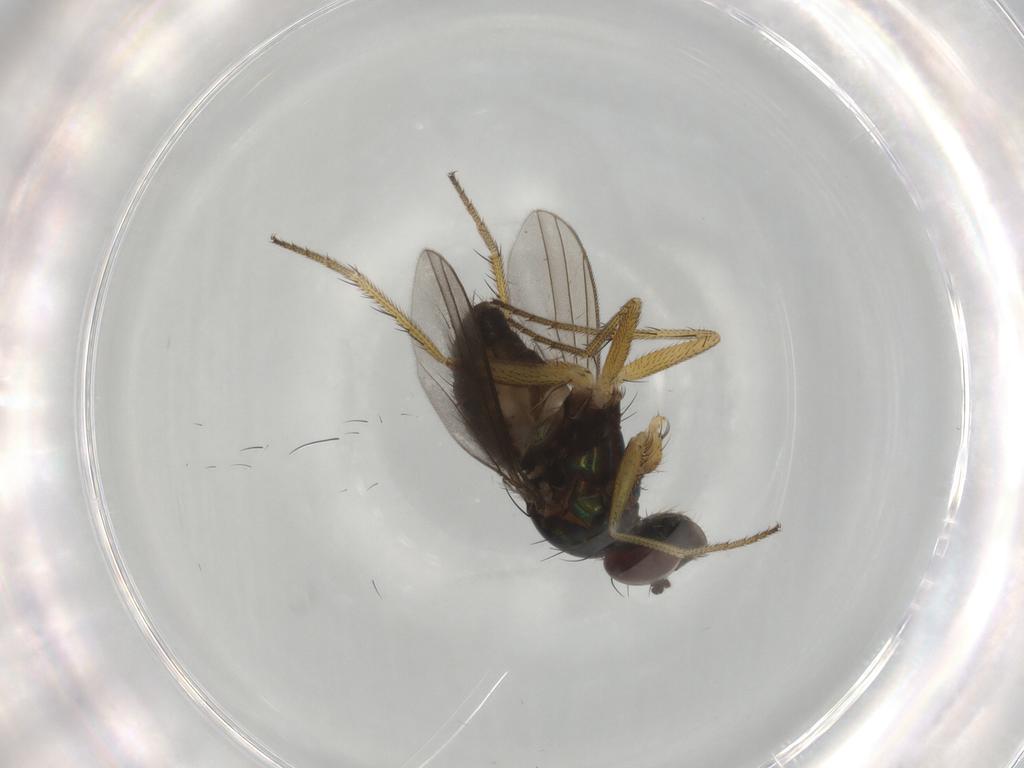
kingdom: Animalia
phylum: Arthropoda
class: Insecta
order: Diptera
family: Dolichopodidae
